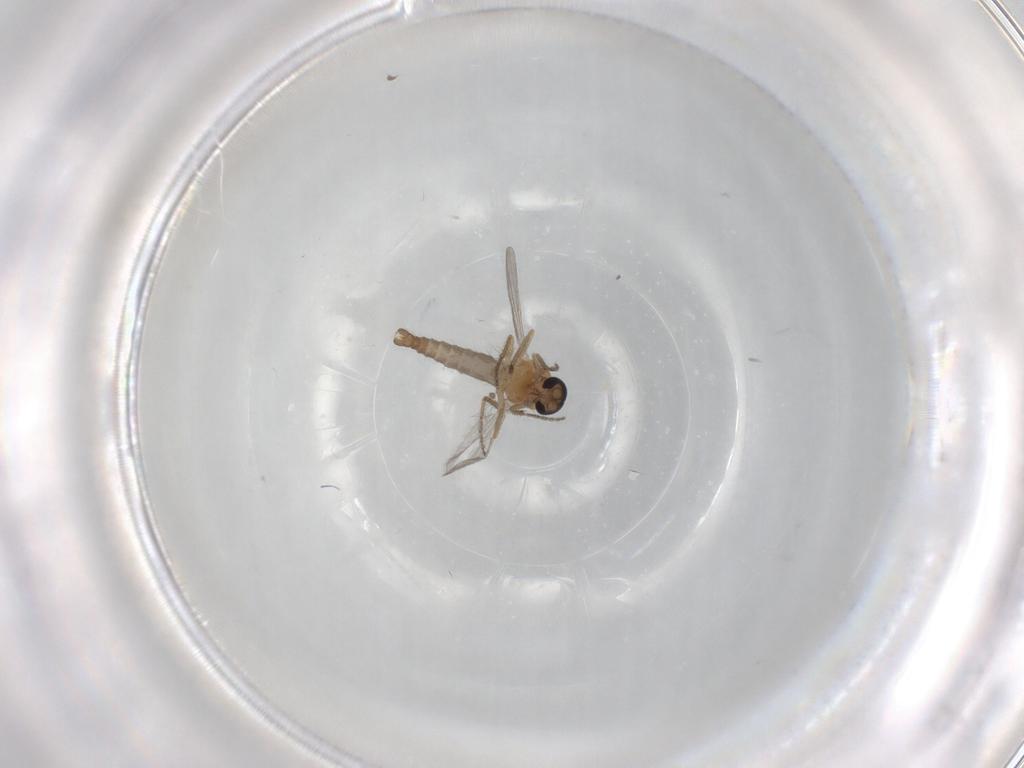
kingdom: Animalia
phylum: Arthropoda
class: Insecta
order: Diptera
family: Ceratopogonidae
